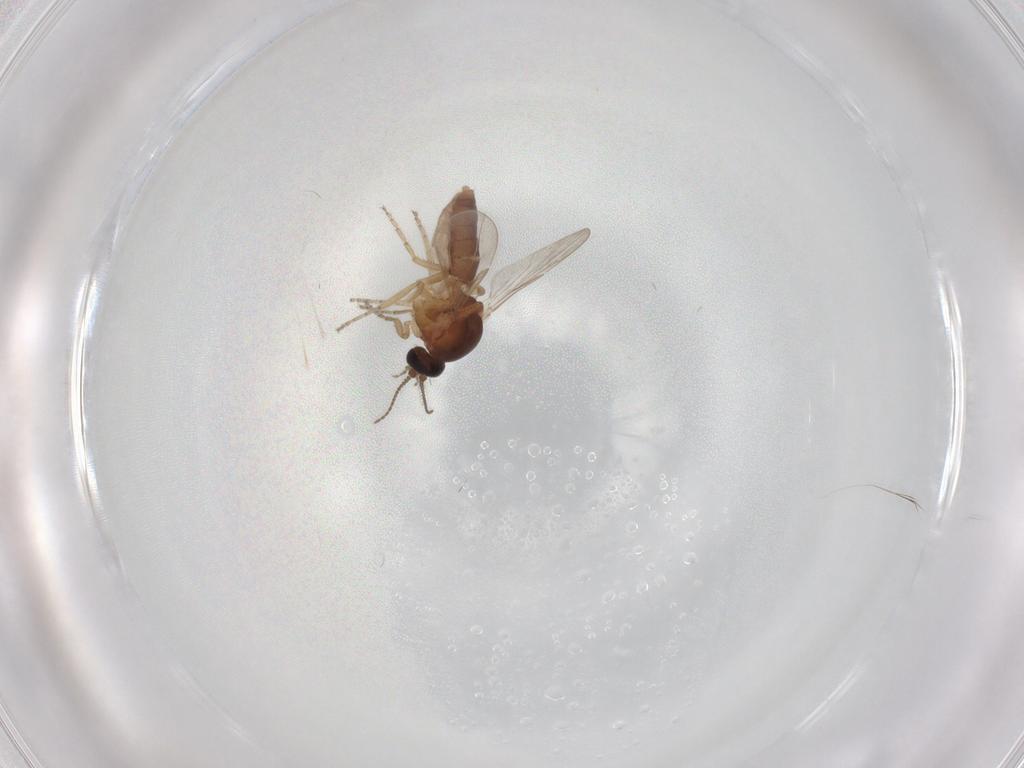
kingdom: Animalia
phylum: Arthropoda
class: Insecta
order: Diptera
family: Ceratopogonidae
